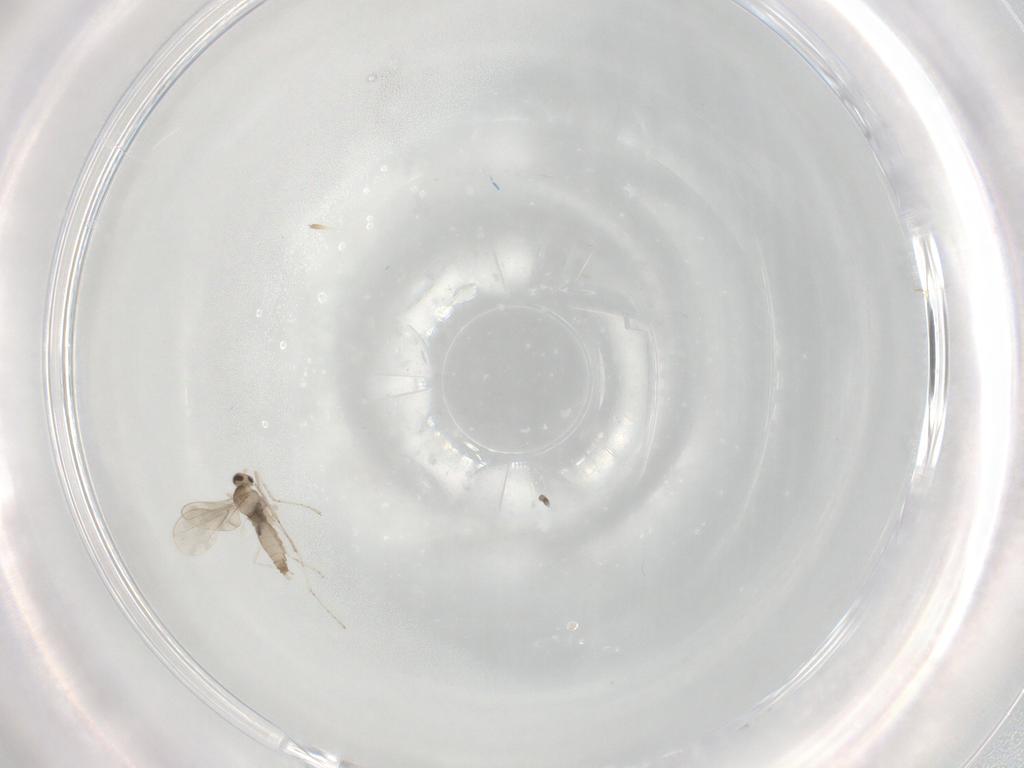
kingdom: Animalia
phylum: Arthropoda
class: Insecta
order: Diptera
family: Cecidomyiidae
